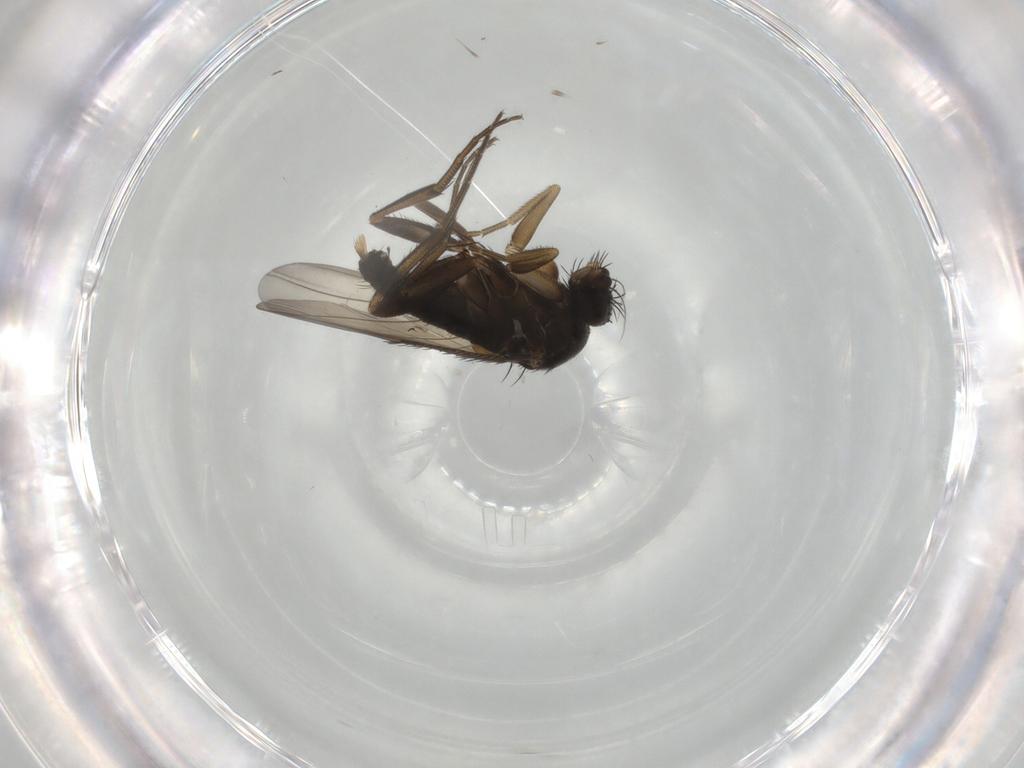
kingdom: Animalia
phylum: Arthropoda
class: Insecta
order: Diptera
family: Phoridae
